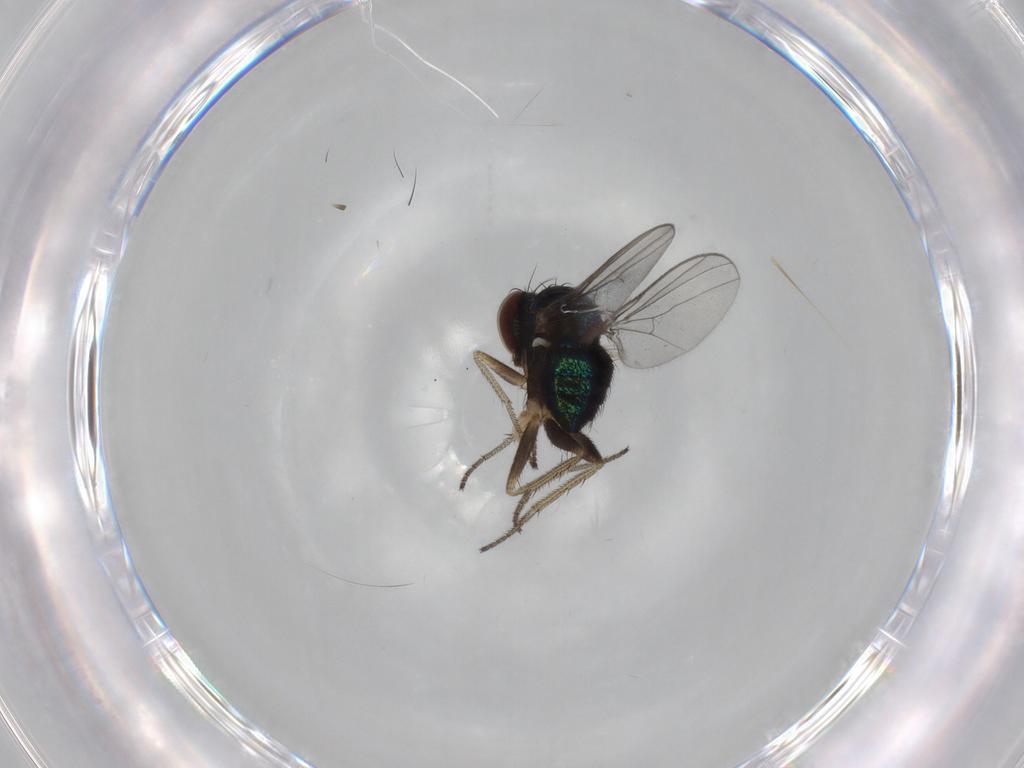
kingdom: Animalia
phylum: Arthropoda
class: Insecta
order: Diptera
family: Dolichopodidae
